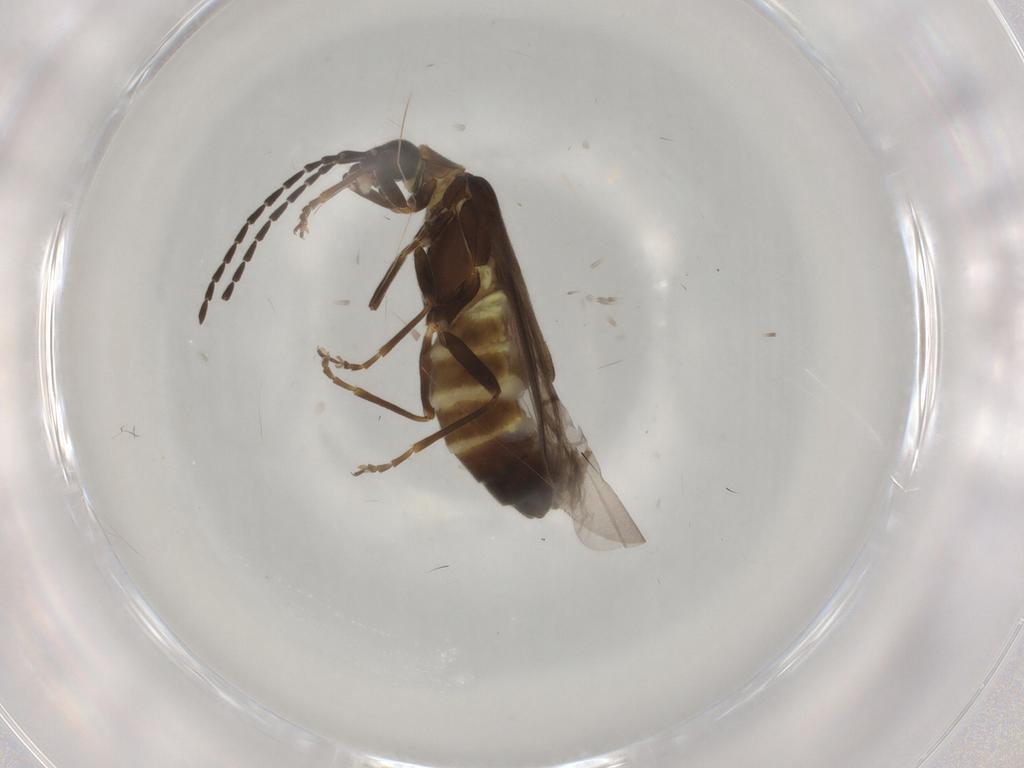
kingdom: Animalia
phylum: Arthropoda
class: Insecta
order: Coleoptera
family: Cantharidae
